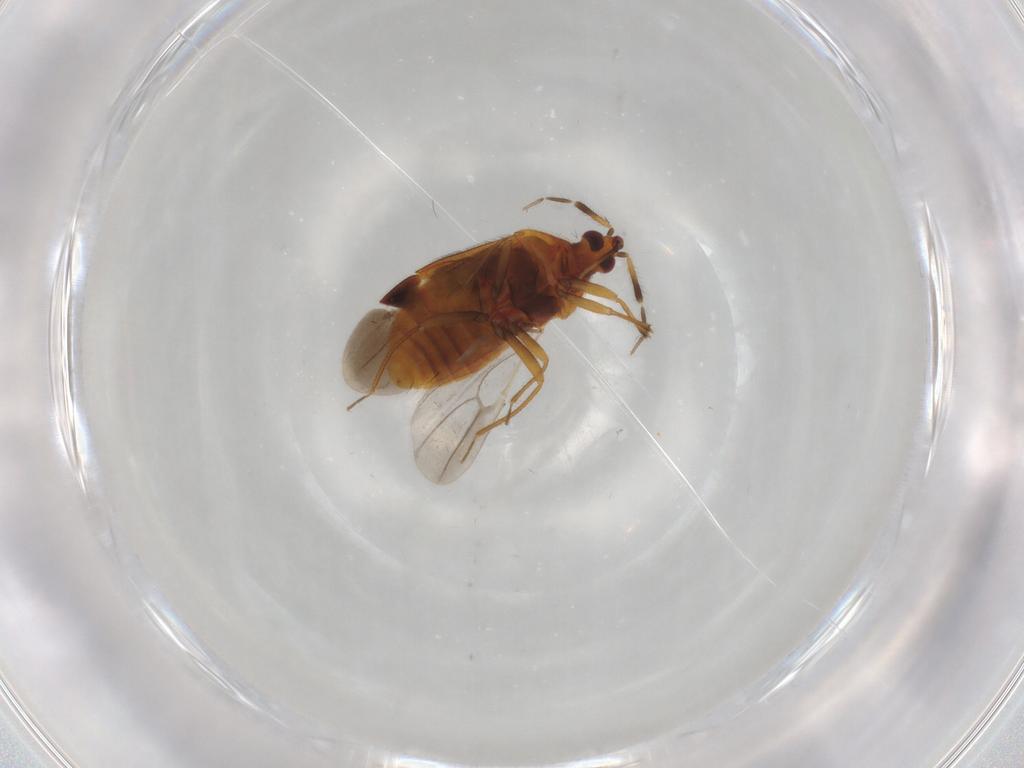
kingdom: Animalia
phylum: Arthropoda
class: Insecta
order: Hemiptera
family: Anthocoridae
